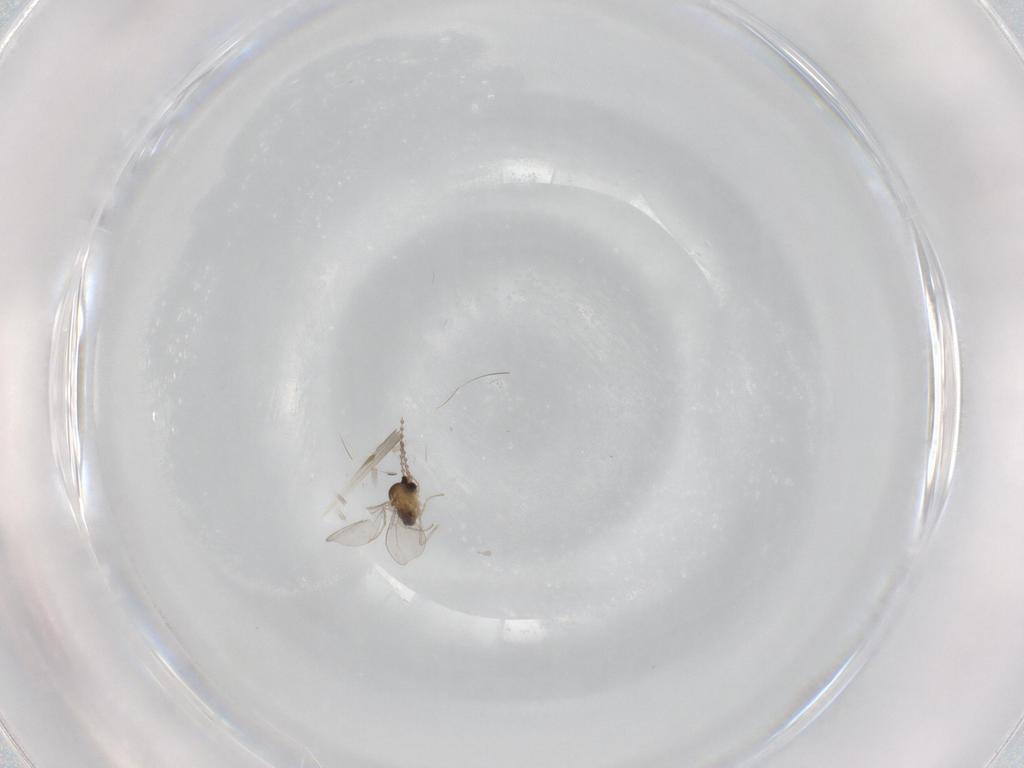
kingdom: Animalia
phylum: Arthropoda
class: Insecta
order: Diptera
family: Cecidomyiidae
